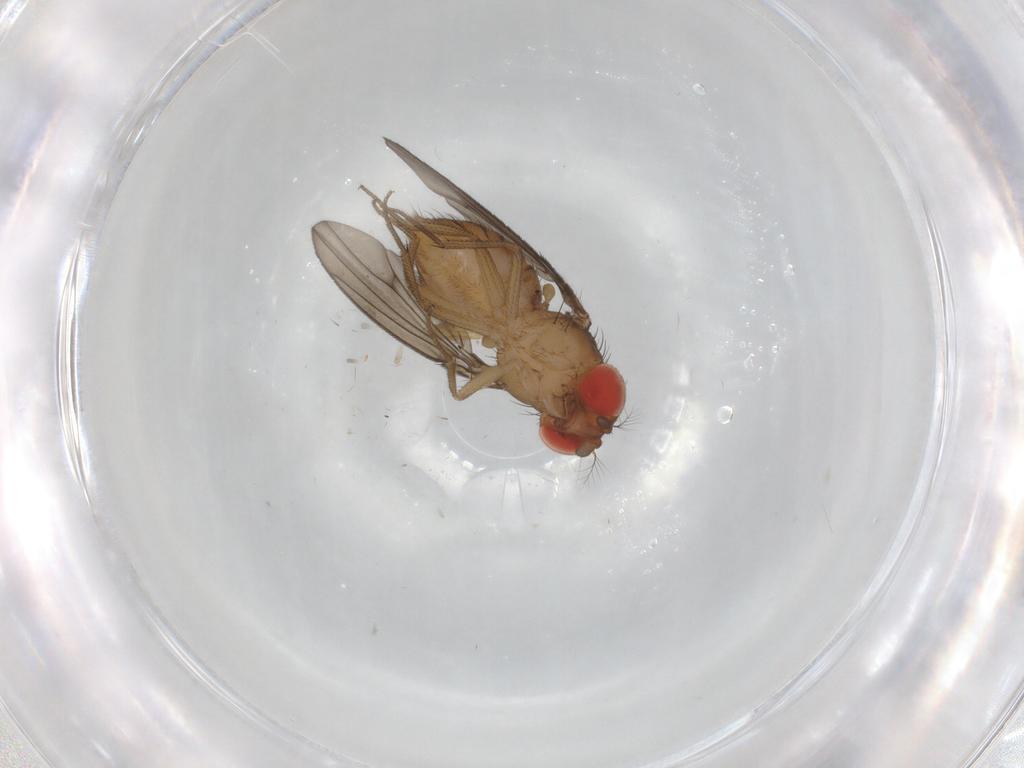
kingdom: Animalia
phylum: Arthropoda
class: Insecta
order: Diptera
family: Drosophilidae
